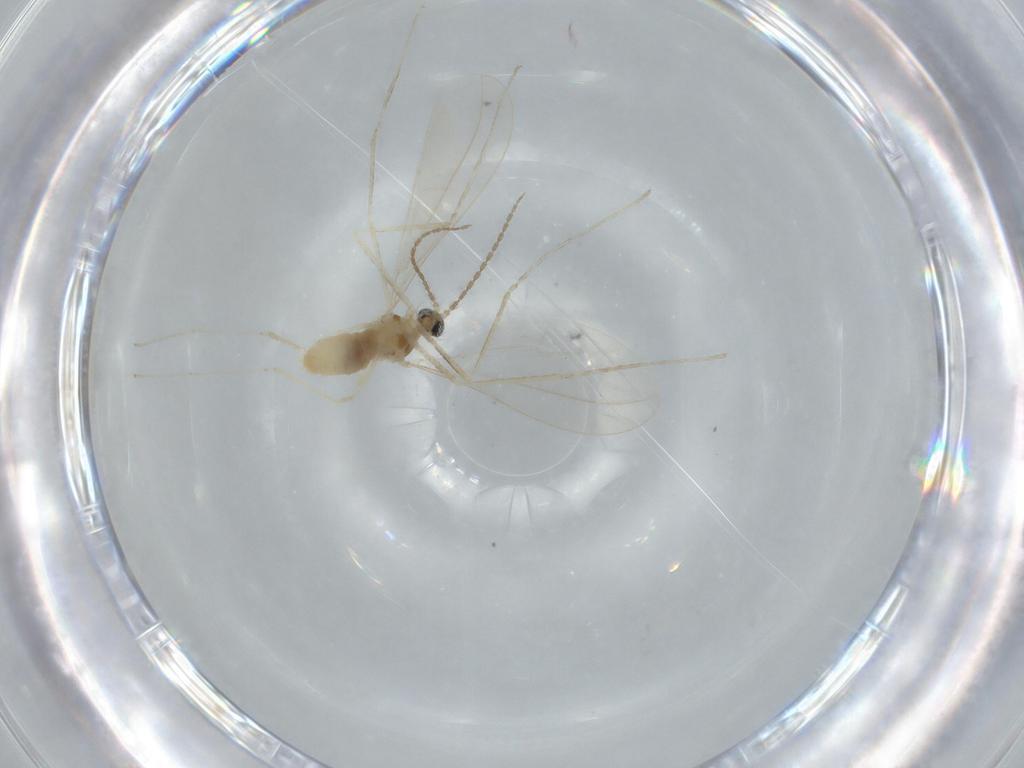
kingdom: Animalia
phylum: Arthropoda
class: Insecta
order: Diptera
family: Cecidomyiidae
